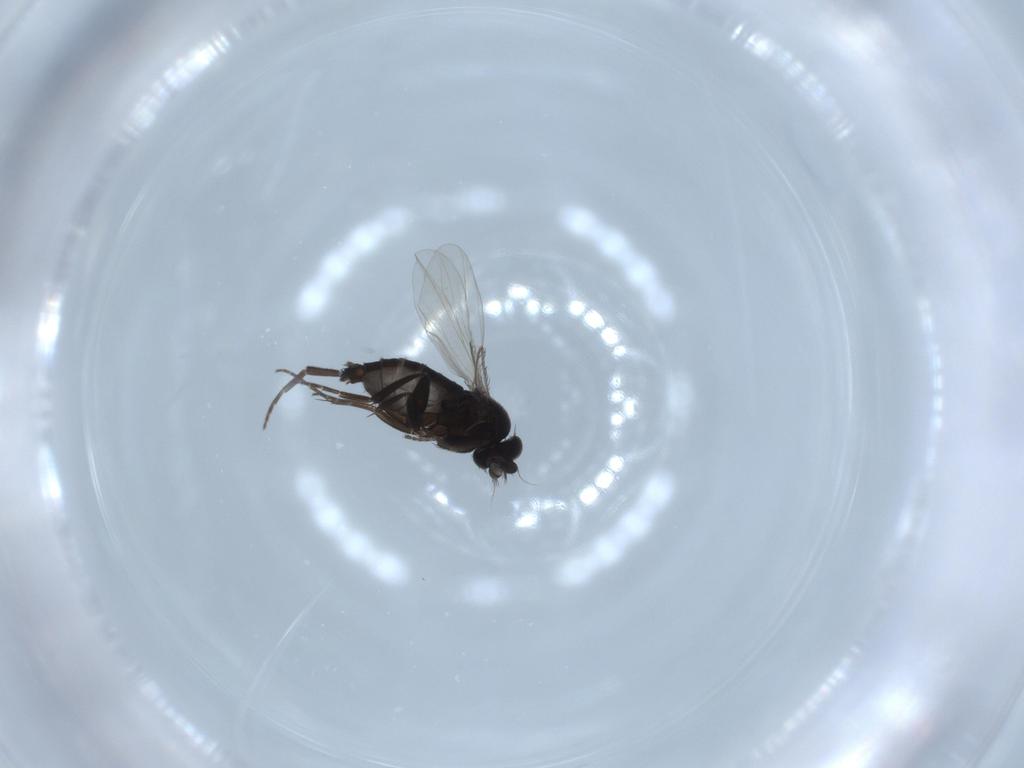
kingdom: Animalia
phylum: Arthropoda
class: Insecta
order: Diptera
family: Phoridae
